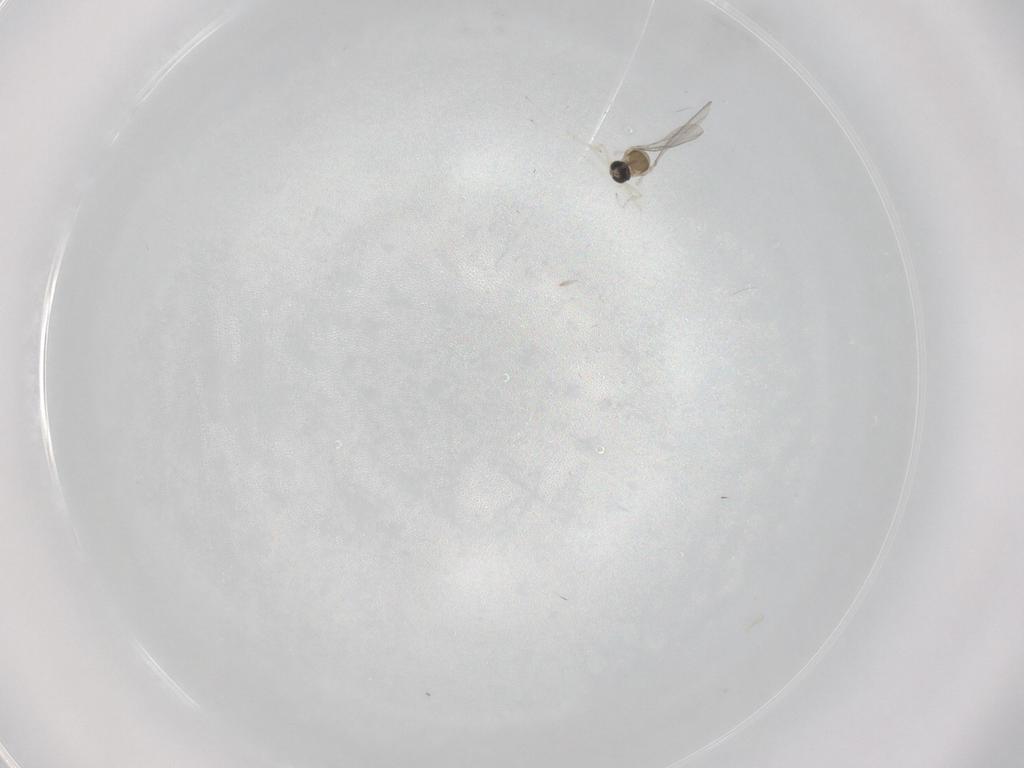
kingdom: Animalia
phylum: Arthropoda
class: Insecta
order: Diptera
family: Cecidomyiidae
